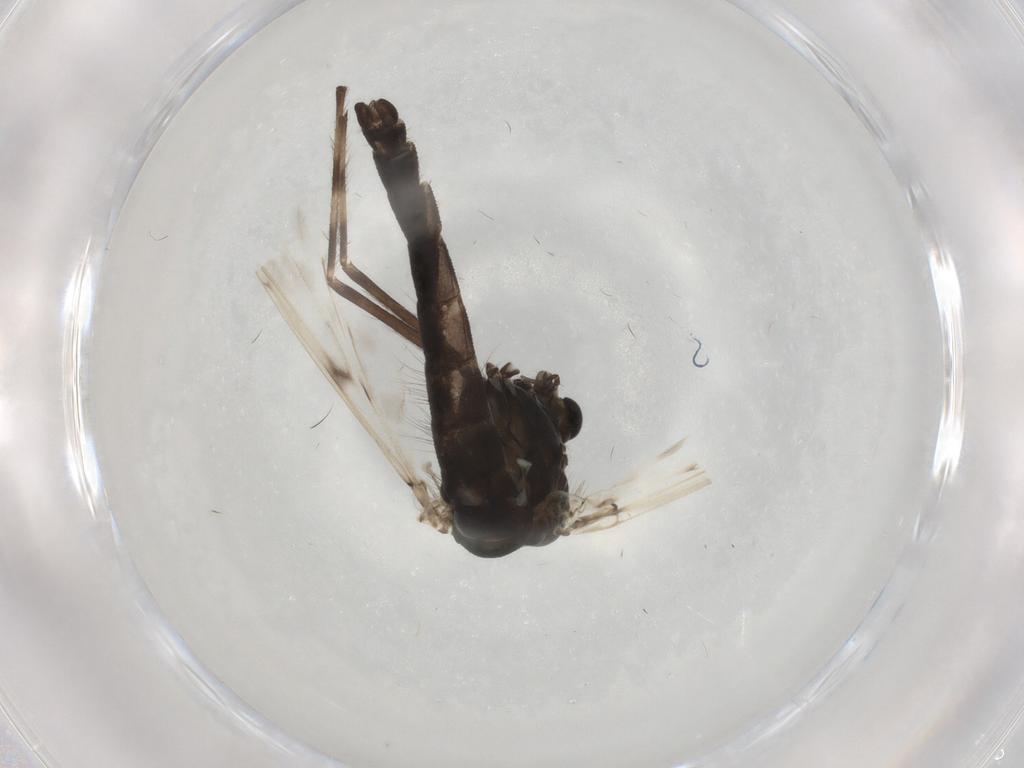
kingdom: Animalia
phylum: Arthropoda
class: Insecta
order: Diptera
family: Chironomidae
